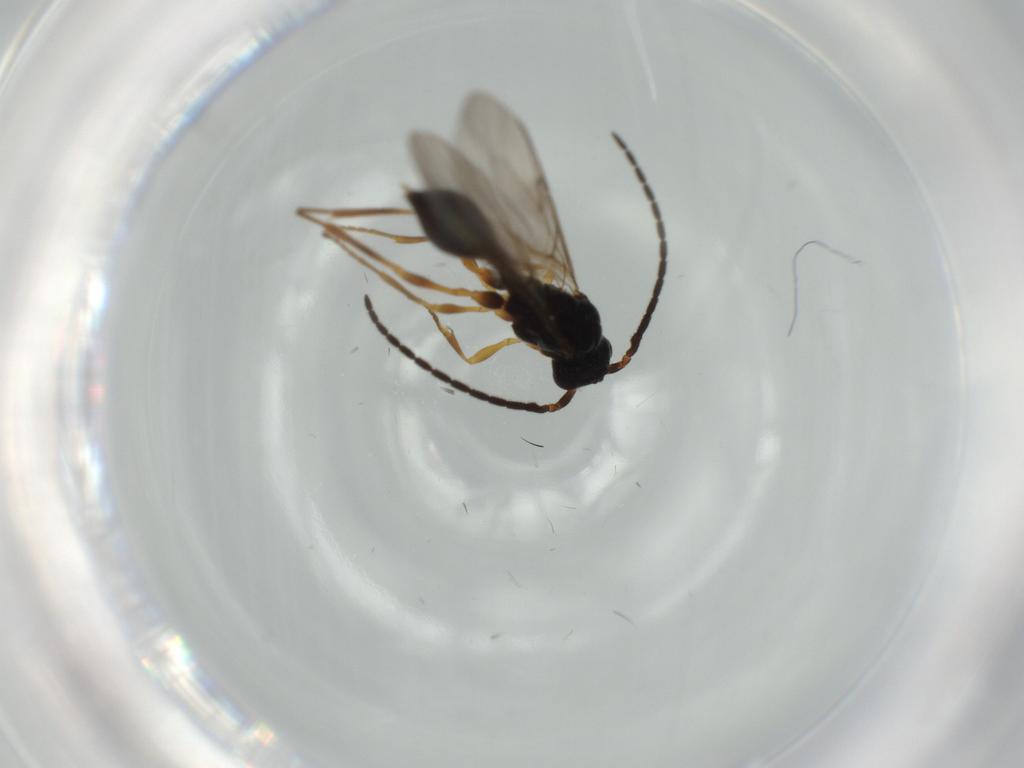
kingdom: Animalia
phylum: Arthropoda
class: Insecta
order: Hymenoptera
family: Diapriidae
